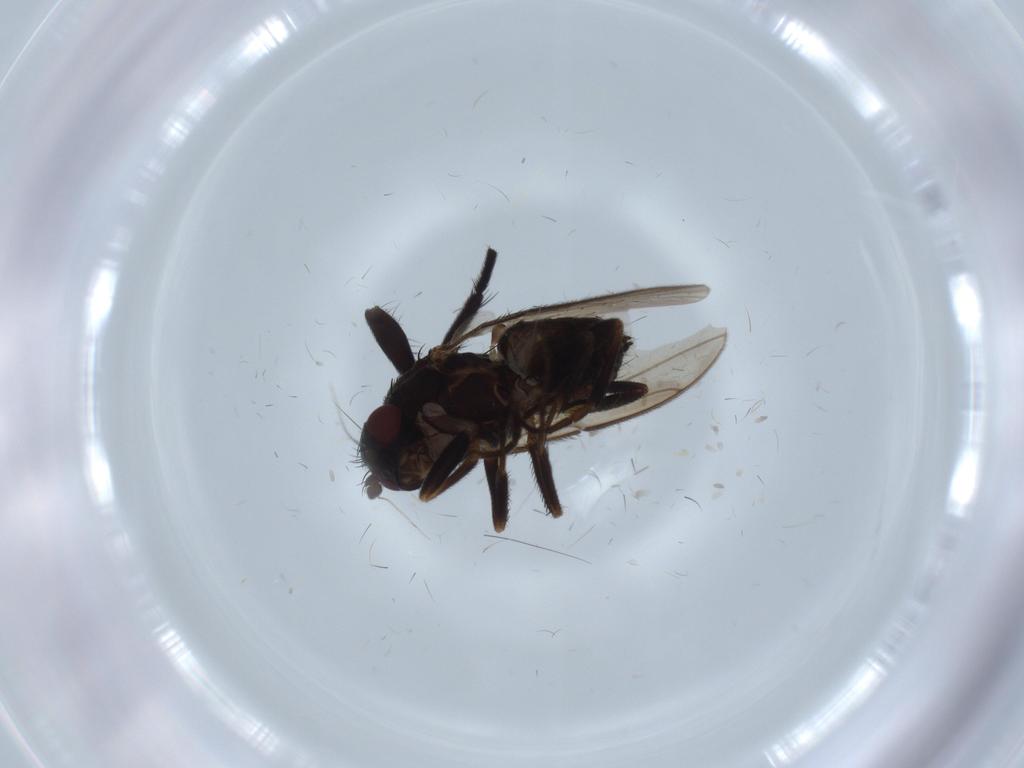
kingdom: Animalia
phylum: Arthropoda
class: Insecta
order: Diptera
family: Sphaeroceridae
